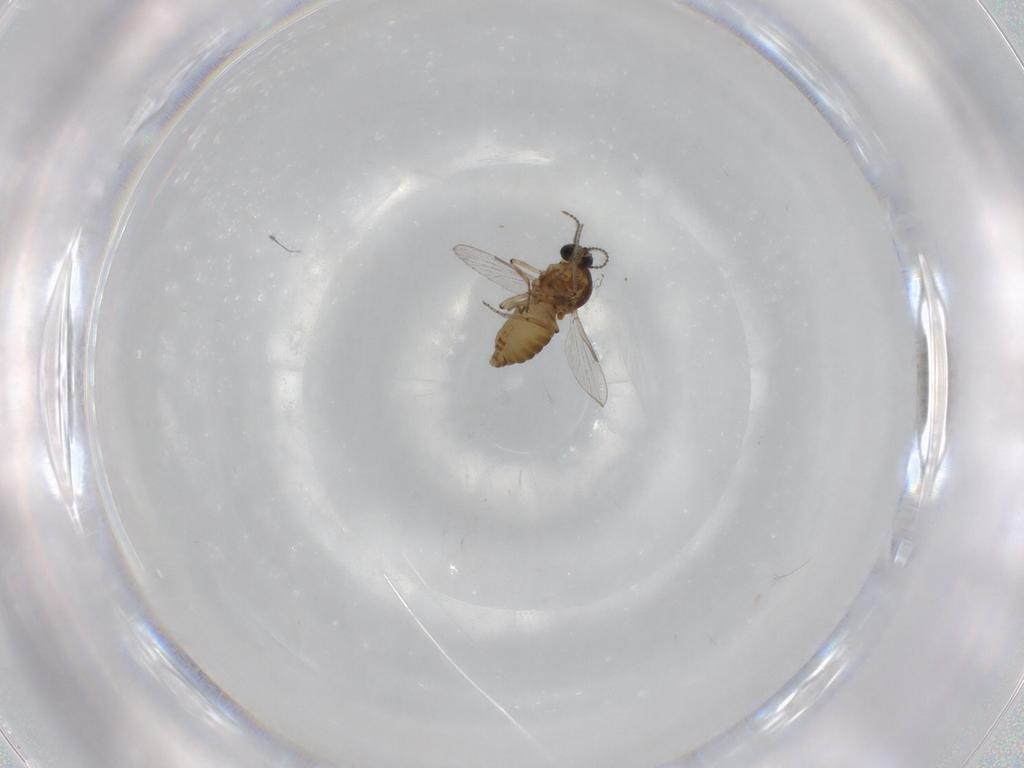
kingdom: Animalia
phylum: Arthropoda
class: Insecta
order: Diptera
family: Ceratopogonidae
